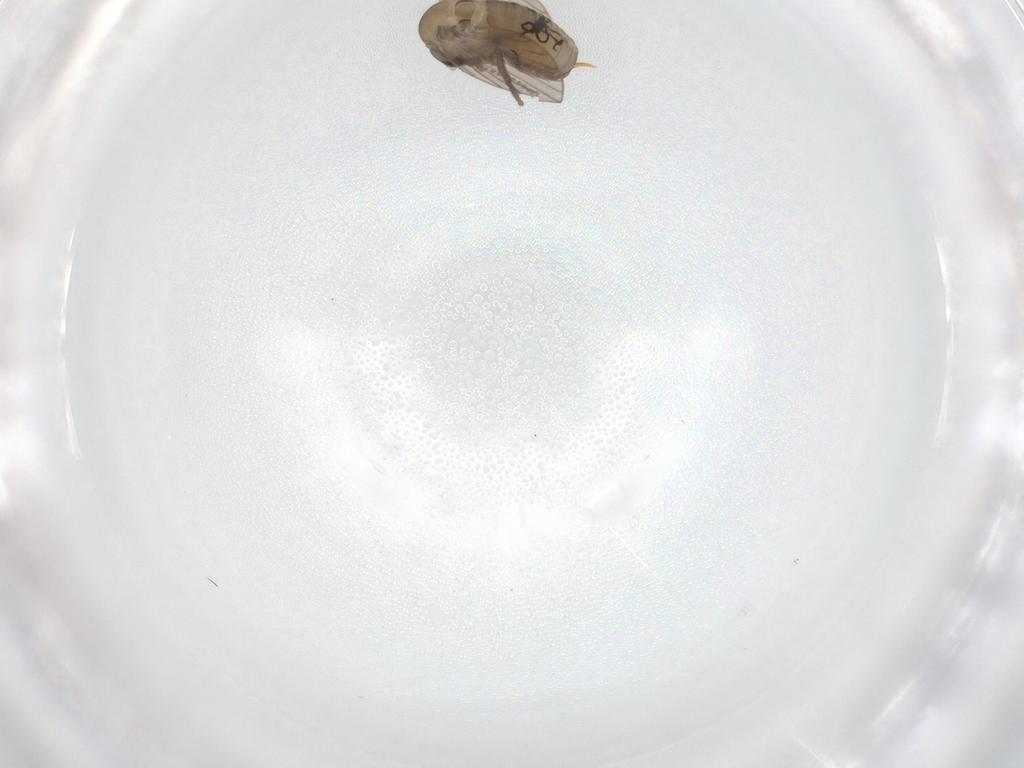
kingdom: Animalia
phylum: Arthropoda
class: Insecta
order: Diptera
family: Psychodidae
